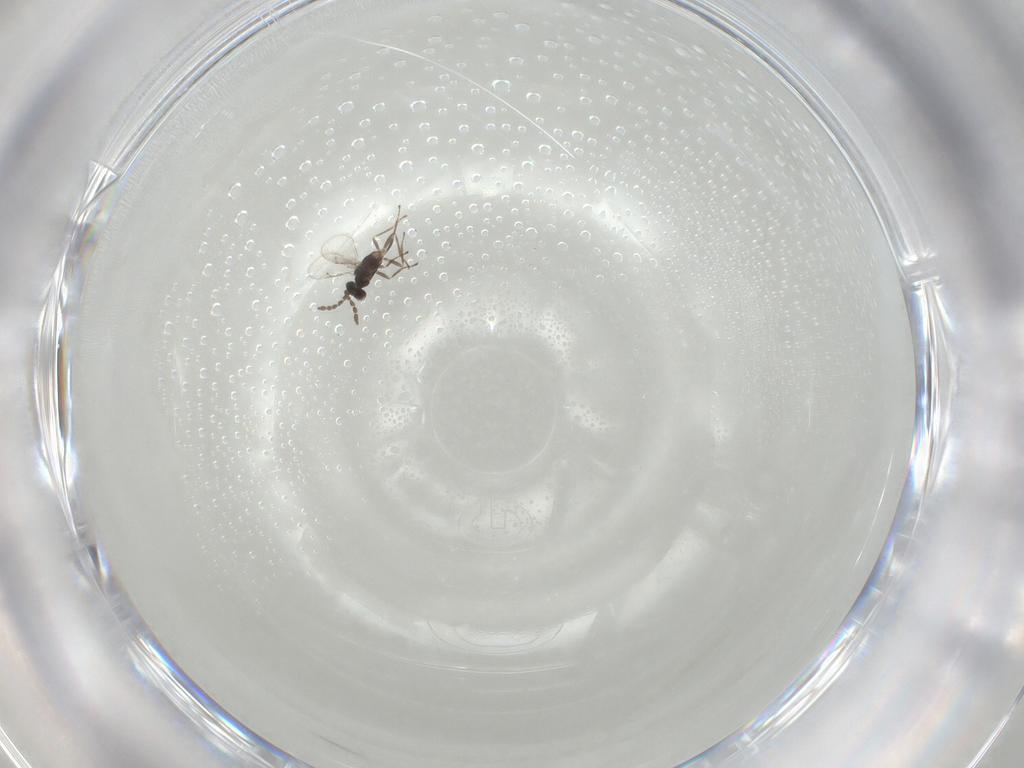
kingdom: Animalia
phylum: Arthropoda
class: Insecta
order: Hymenoptera
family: Eulophidae
